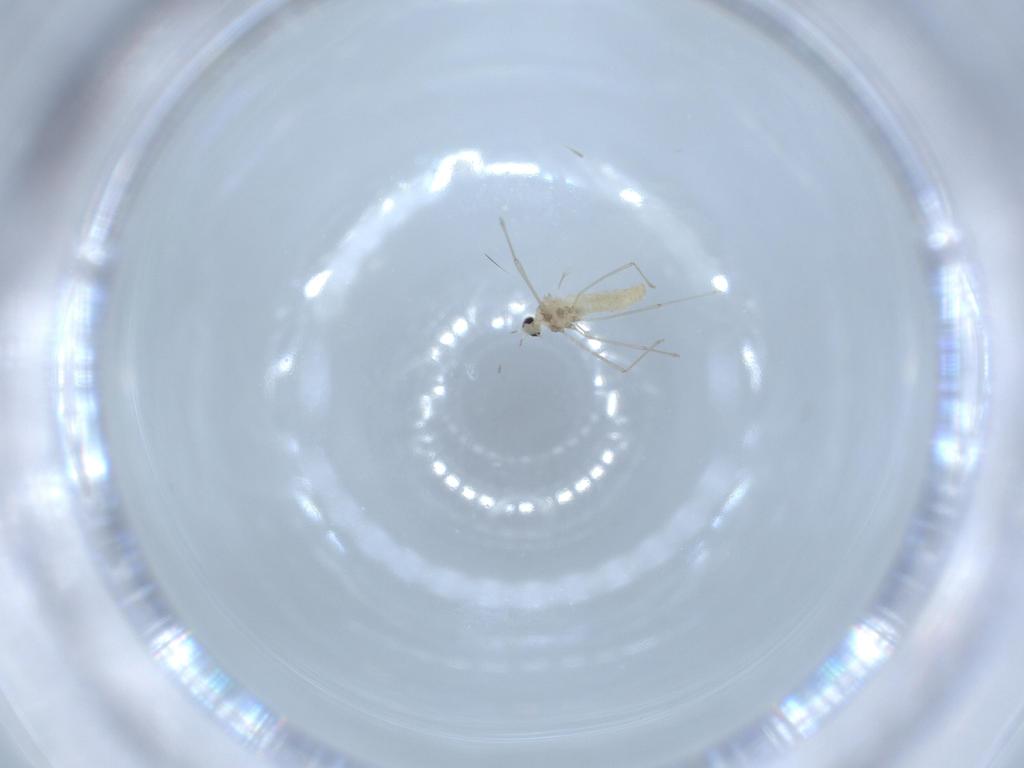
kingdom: Animalia
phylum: Arthropoda
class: Insecta
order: Diptera
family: Cecidomyiidae
